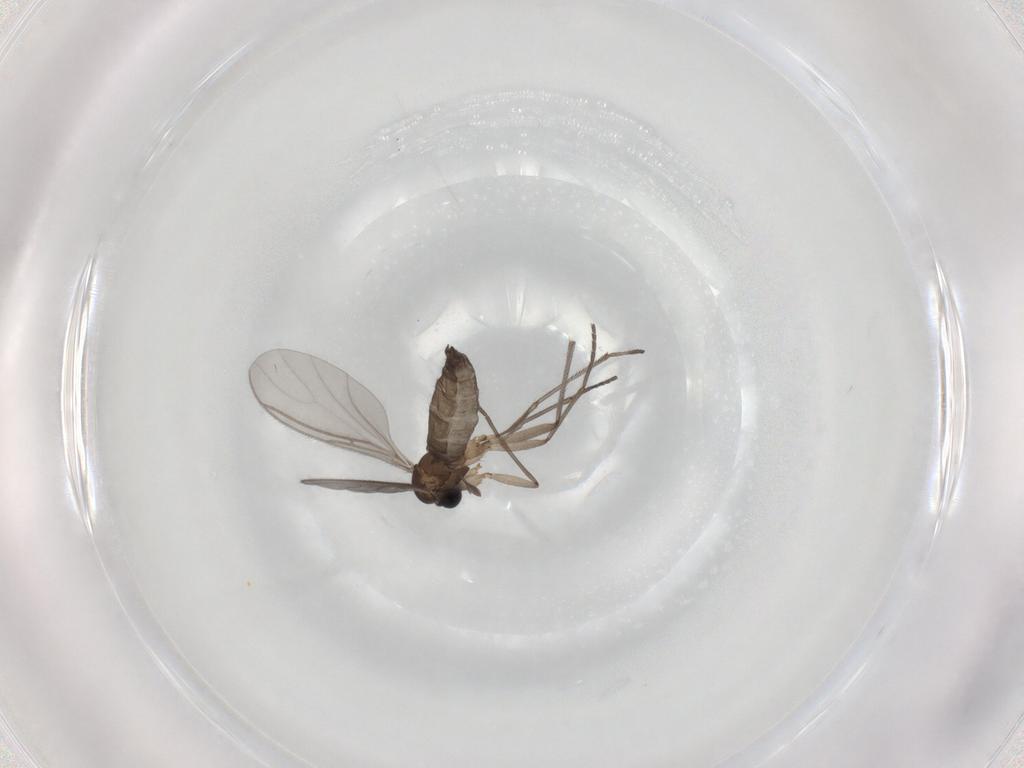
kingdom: Animalia
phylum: Arthropoda
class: Insecta
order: Diptera
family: Sciaridae
